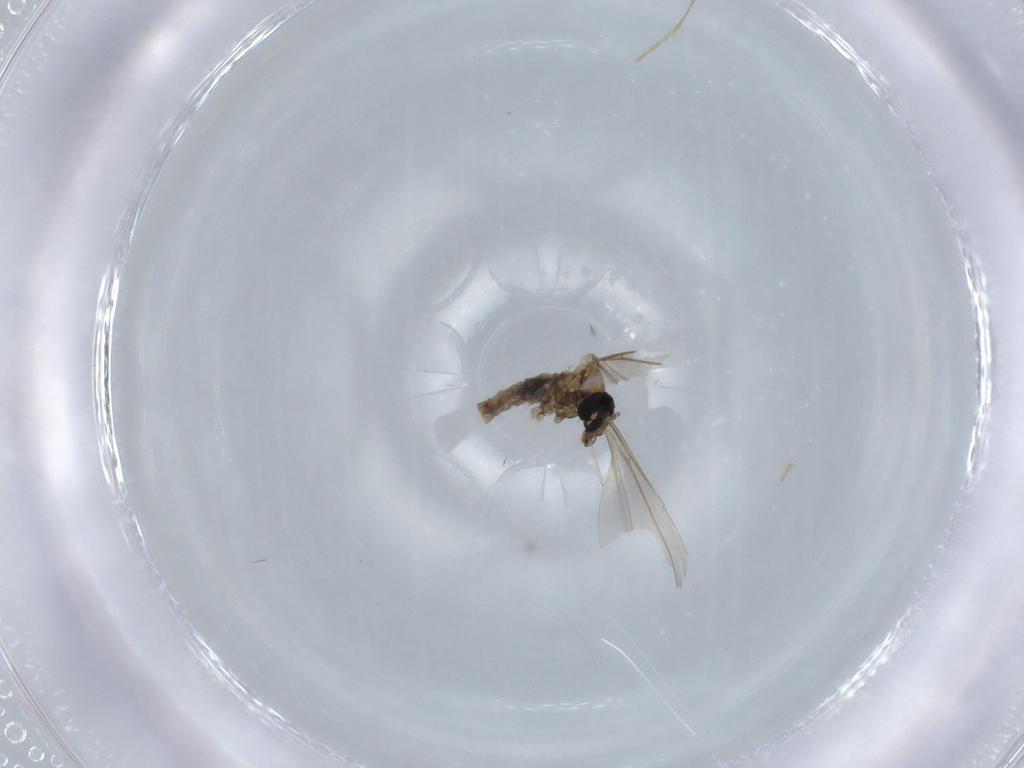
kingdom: Animalia
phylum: Arthropoda
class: Insecta
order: Diptera
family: Cecidomyiidae
